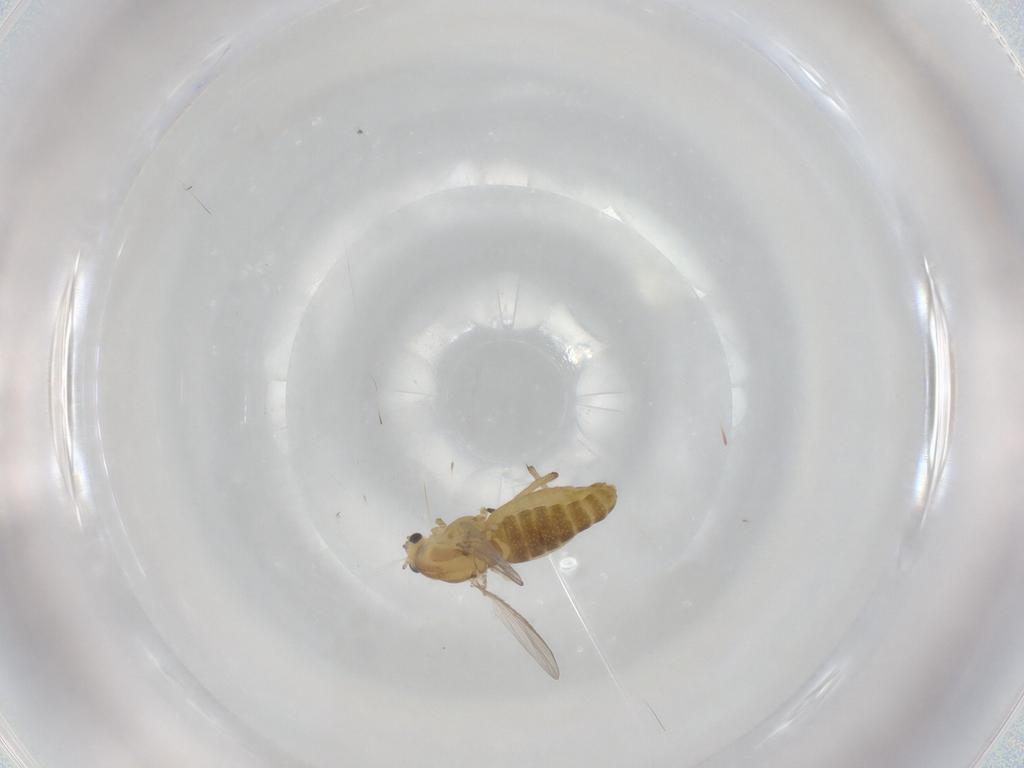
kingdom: Animalia
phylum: Arthropoda
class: Insecta
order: Diptera
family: Chironomidae
